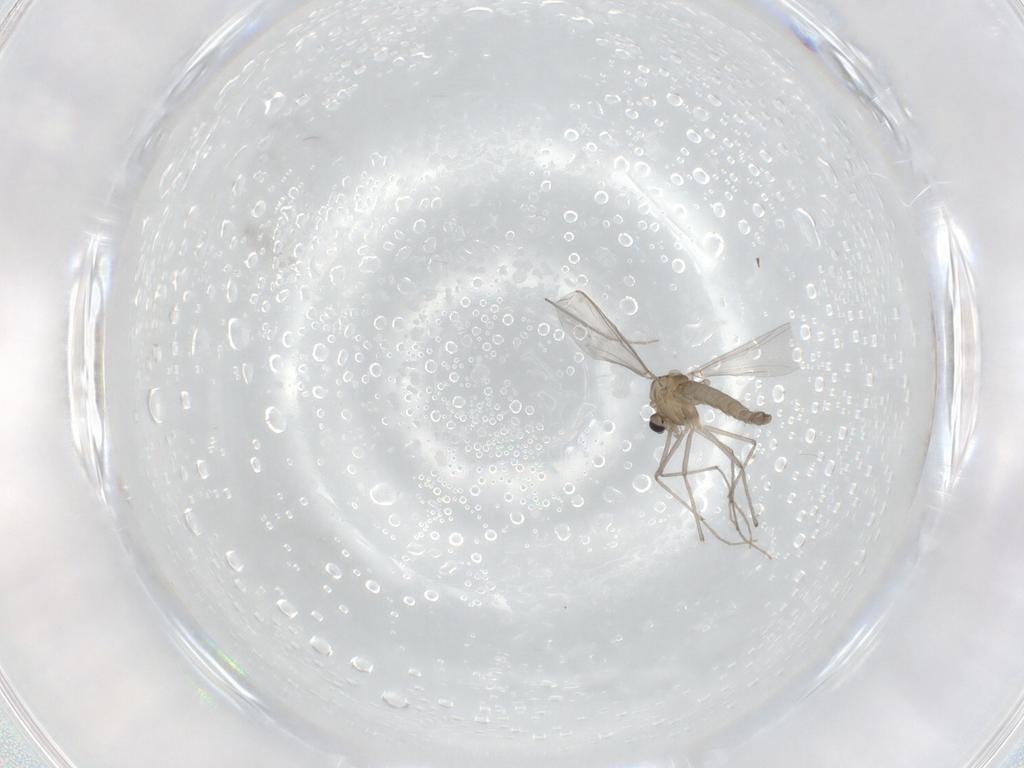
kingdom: Animalia
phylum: Arthropoda
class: Insecta
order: Diptera
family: Chironomidae
